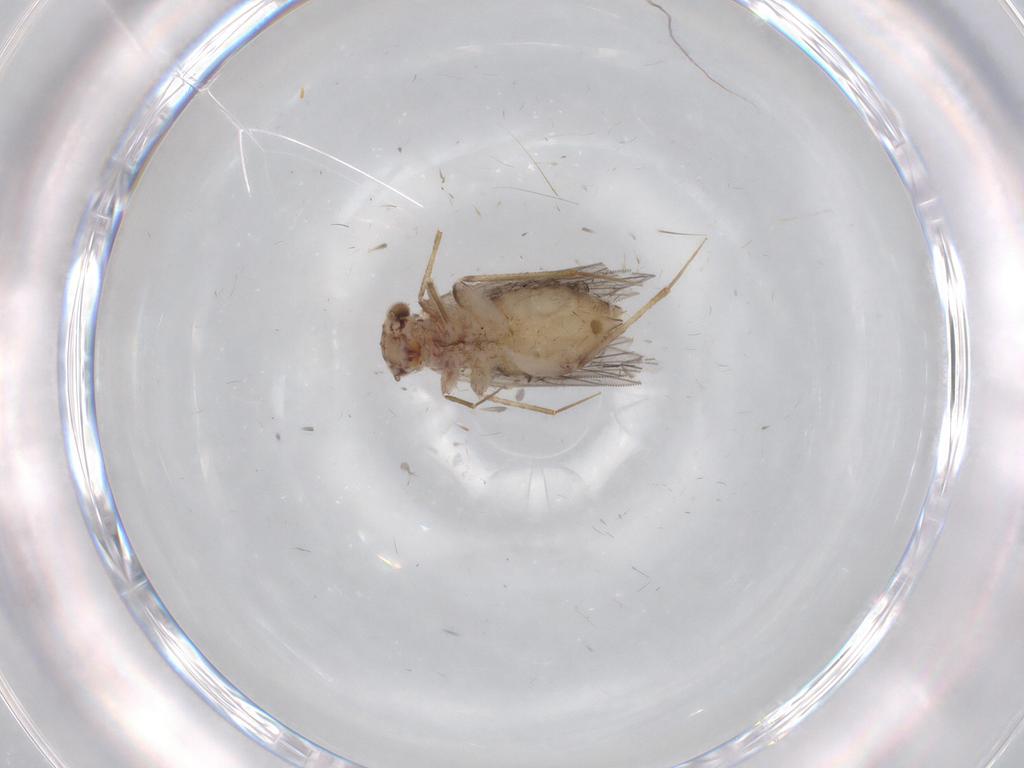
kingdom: Animalia
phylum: Arthropoda
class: Insecta
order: Psocodea
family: Lepidopsocidae
